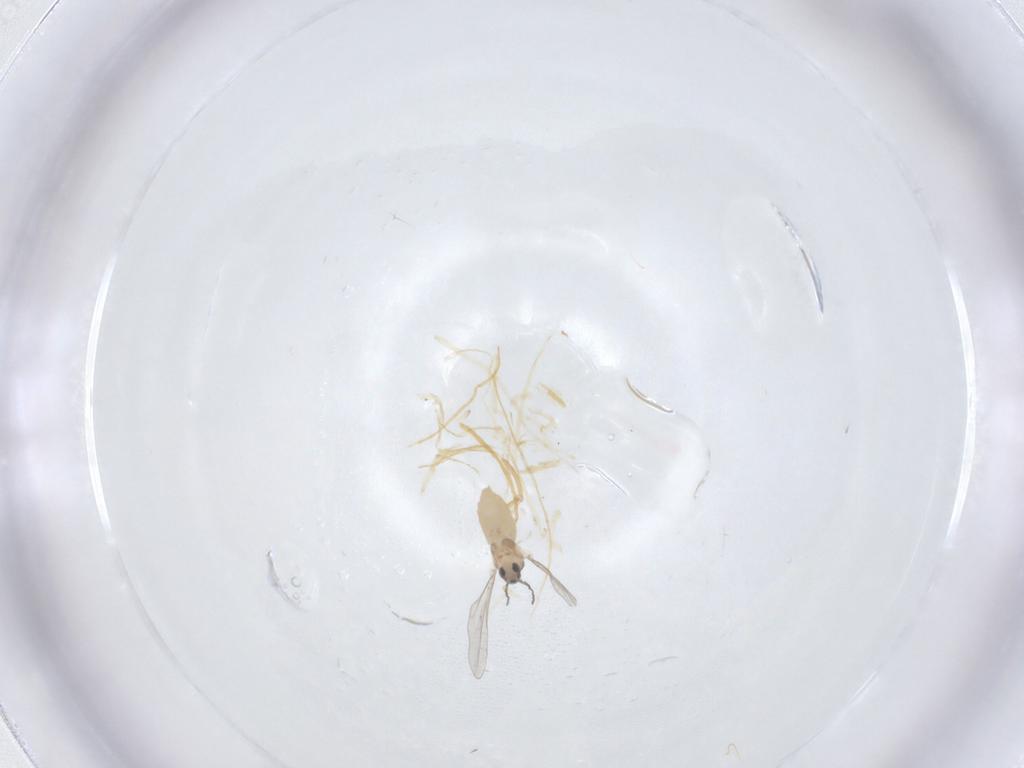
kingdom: Animalia
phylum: Arthropoda
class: Insecta
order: Diptera
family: Cecidomyiidae
